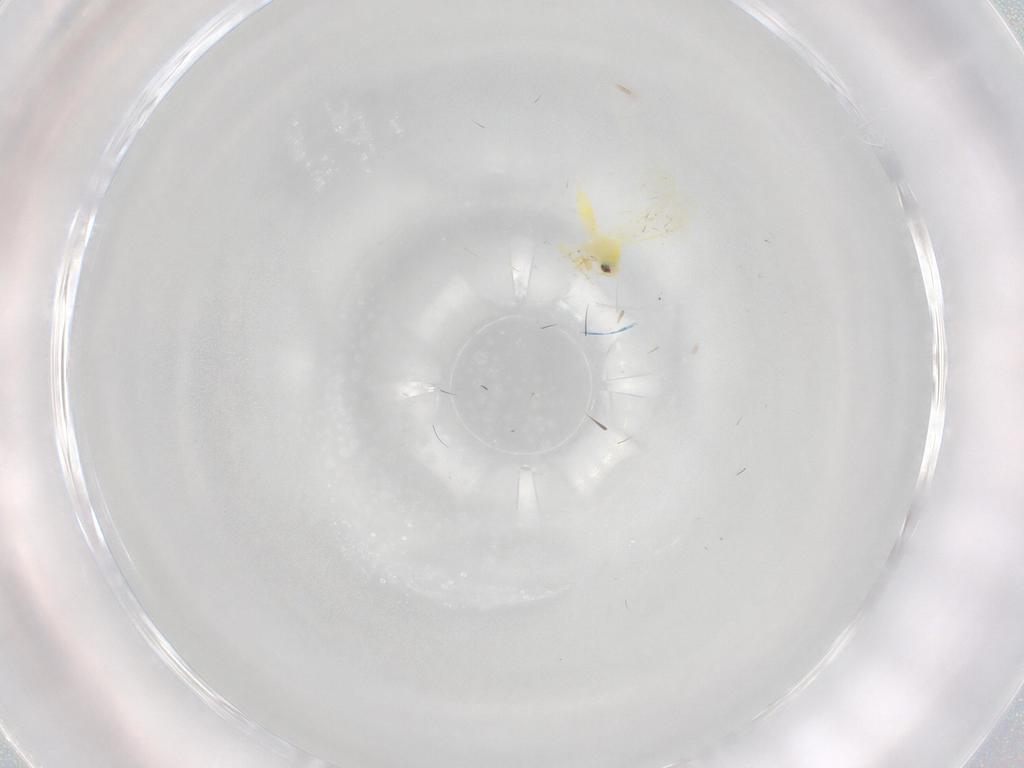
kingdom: Animalia
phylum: Arthropoda
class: Insecta
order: Hemiptera
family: Aleyrodidae
